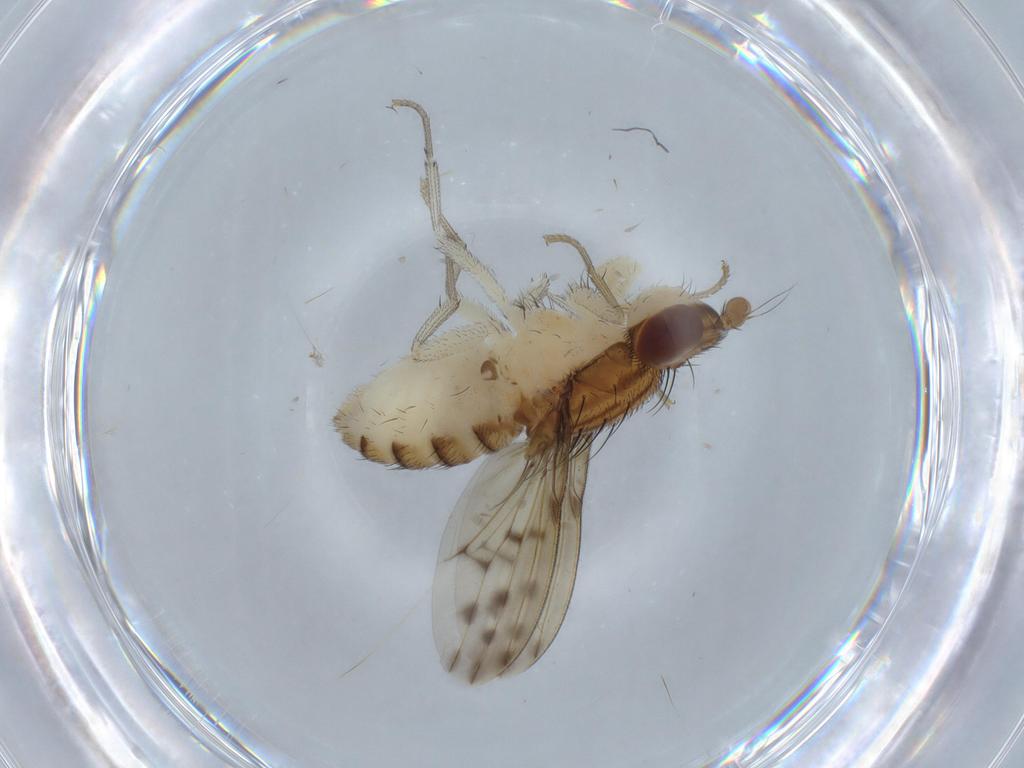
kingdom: Animalia
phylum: Arthropoda
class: Insecta
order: Diptera
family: Lauxaniidae
